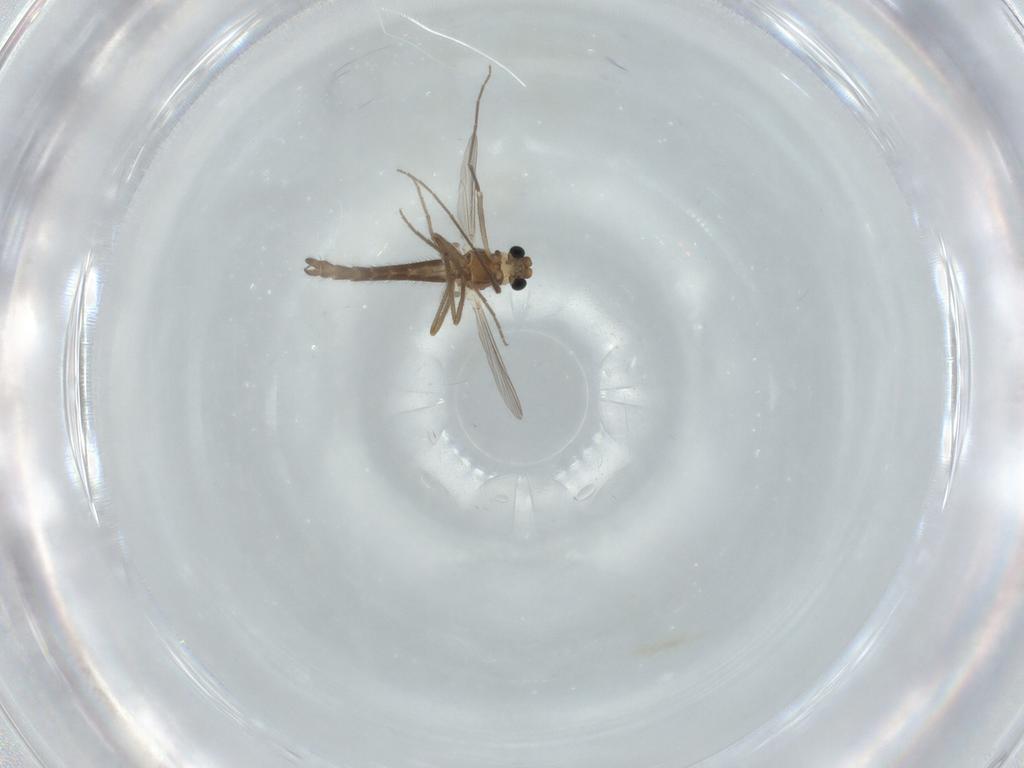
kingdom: Animalia
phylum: Arthropoda
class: Insecta
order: Diptera
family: Chironomidae
